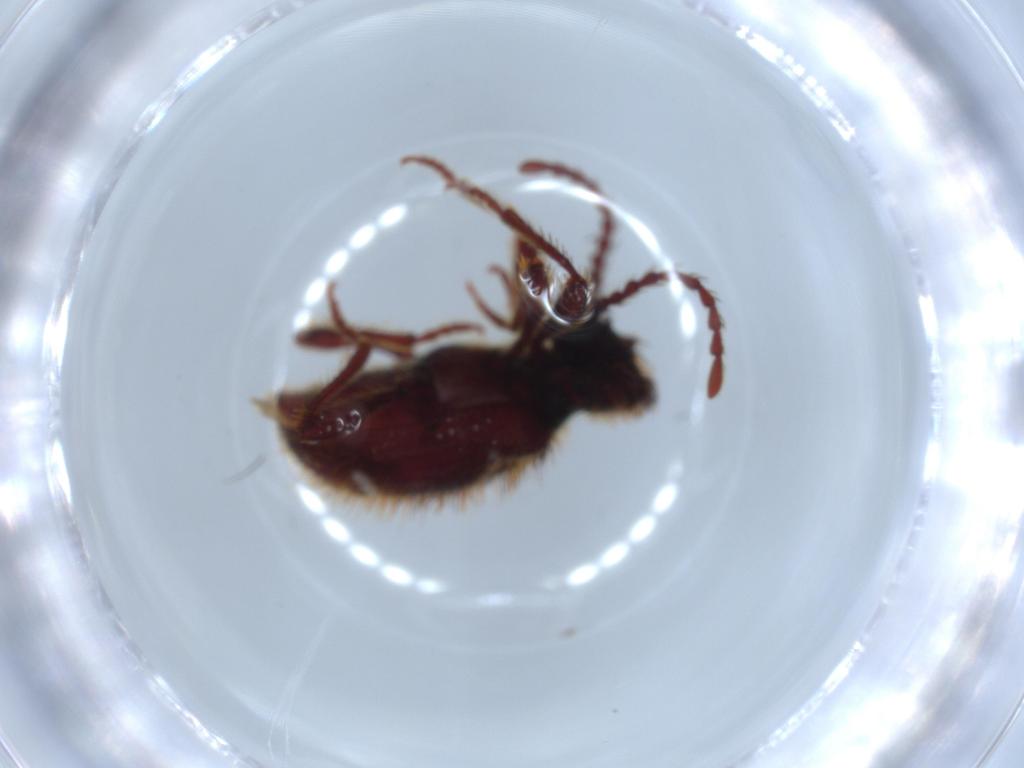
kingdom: Animalia
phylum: Arthropoda
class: Insecta
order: Coleoptera
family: Ptinidae
